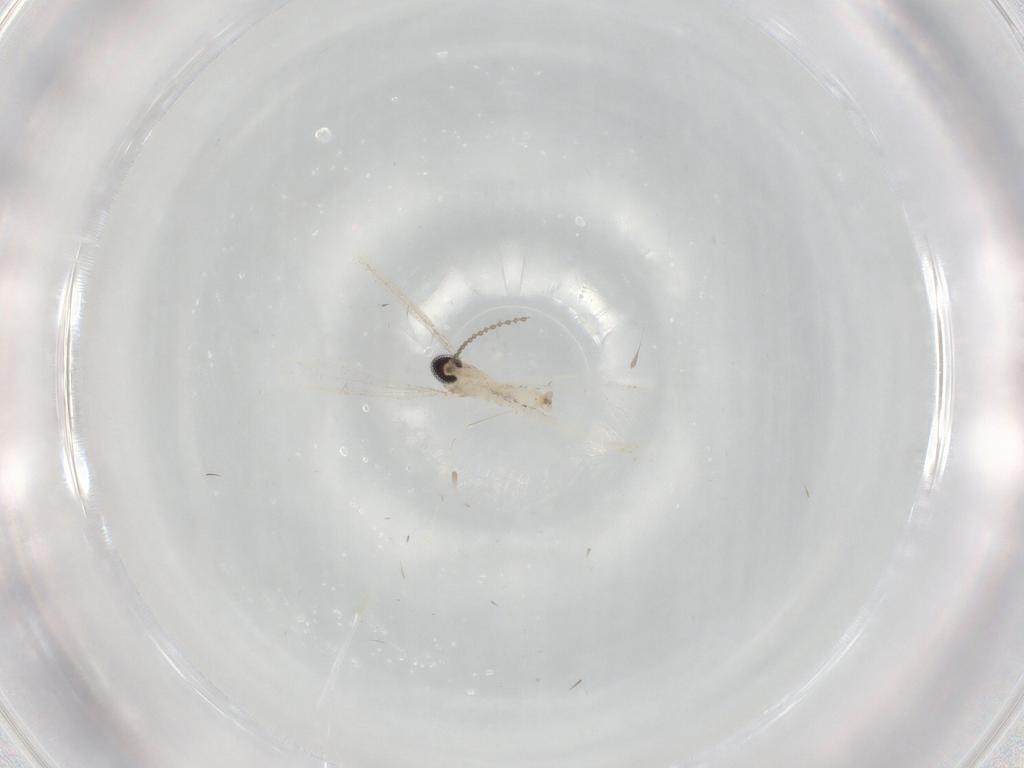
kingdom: Animalia
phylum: Arthropoda
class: Insecta
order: Diptera
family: Cecidomyiidae
